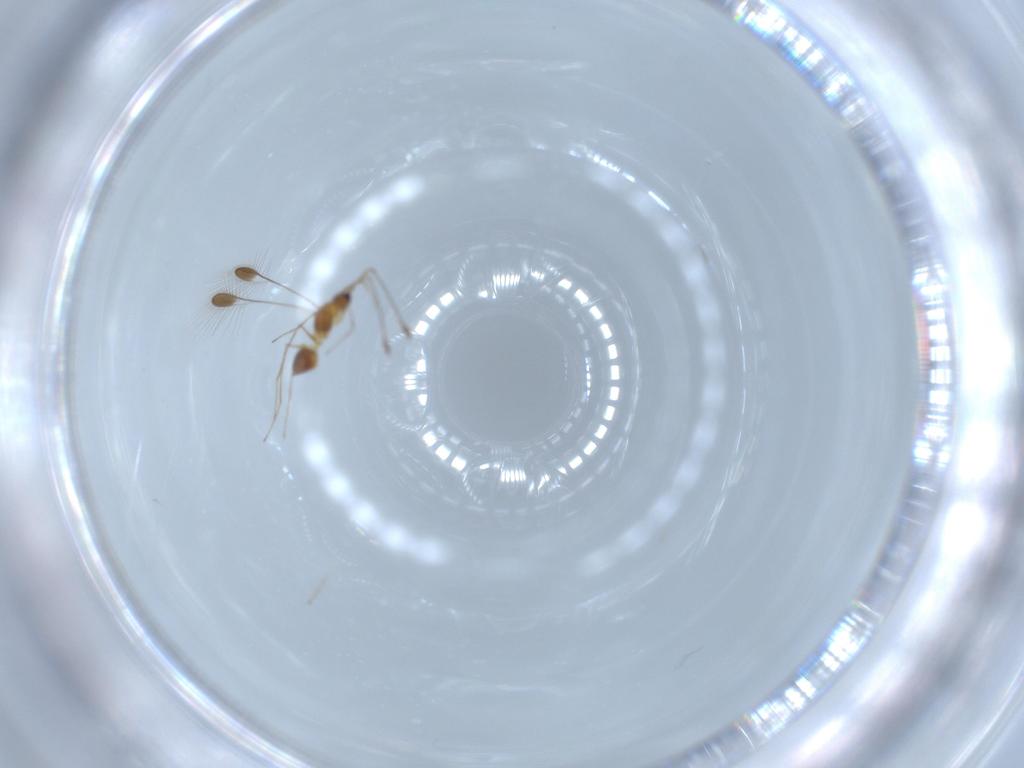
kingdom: Animalia
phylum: Arthropoda
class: Insecta
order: Hymenoptera
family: Mymaridae
